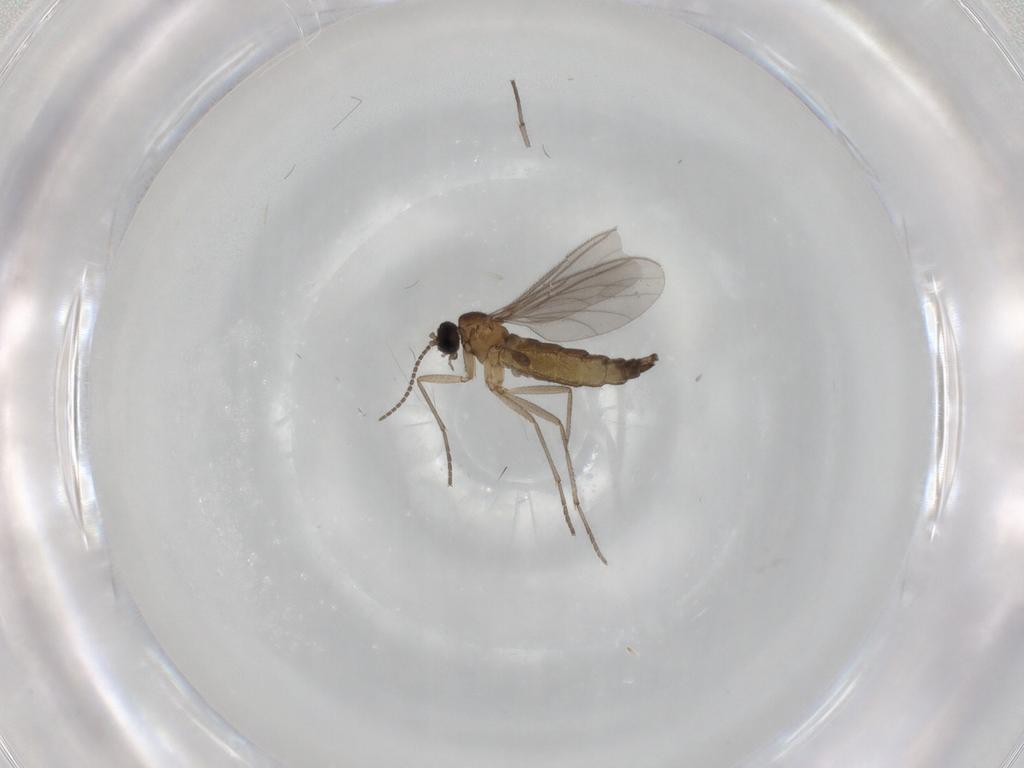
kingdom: Animalia
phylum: Arthropoda
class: Insecta
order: Diptera
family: Sciaridae
